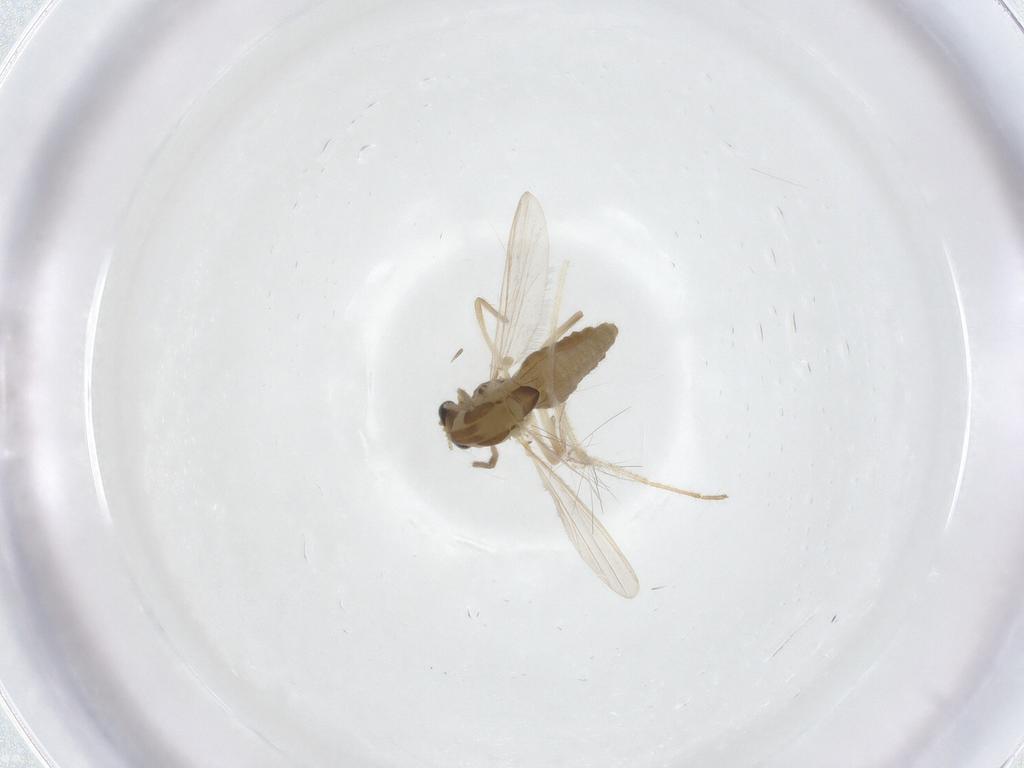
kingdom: Animalia
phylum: Arthropoda
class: Insecta
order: Diptera
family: Chironomidae
